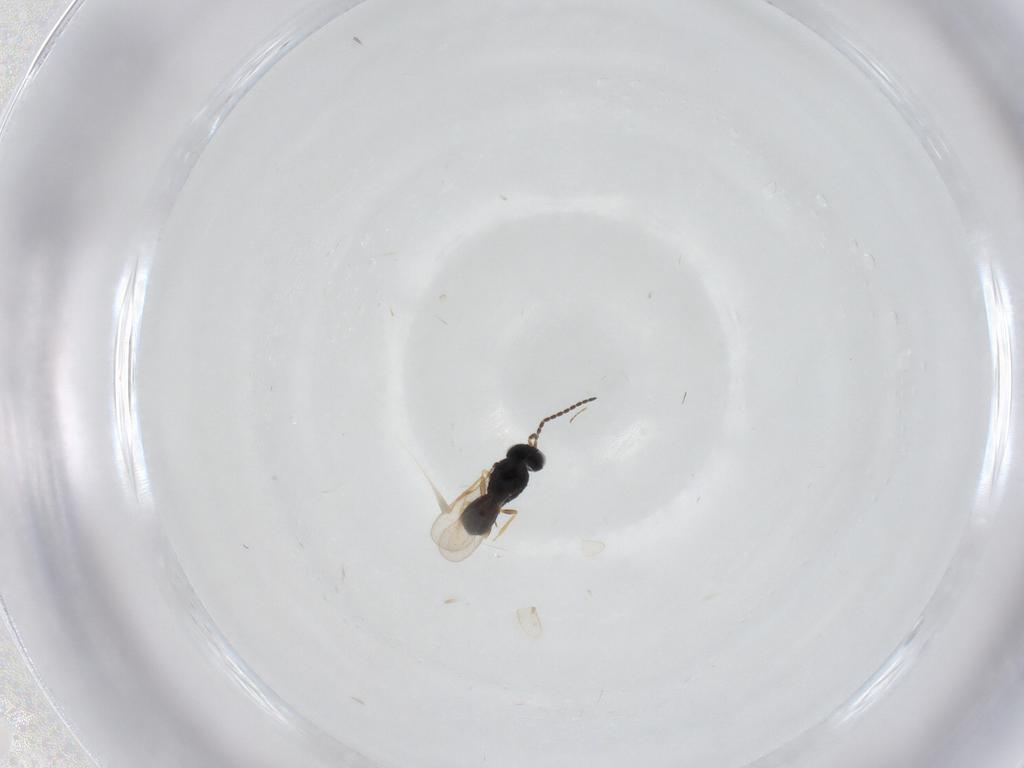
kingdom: Animalia
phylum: Arthropoda
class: Insecta
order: Hymenoptera
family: Scelionidae
